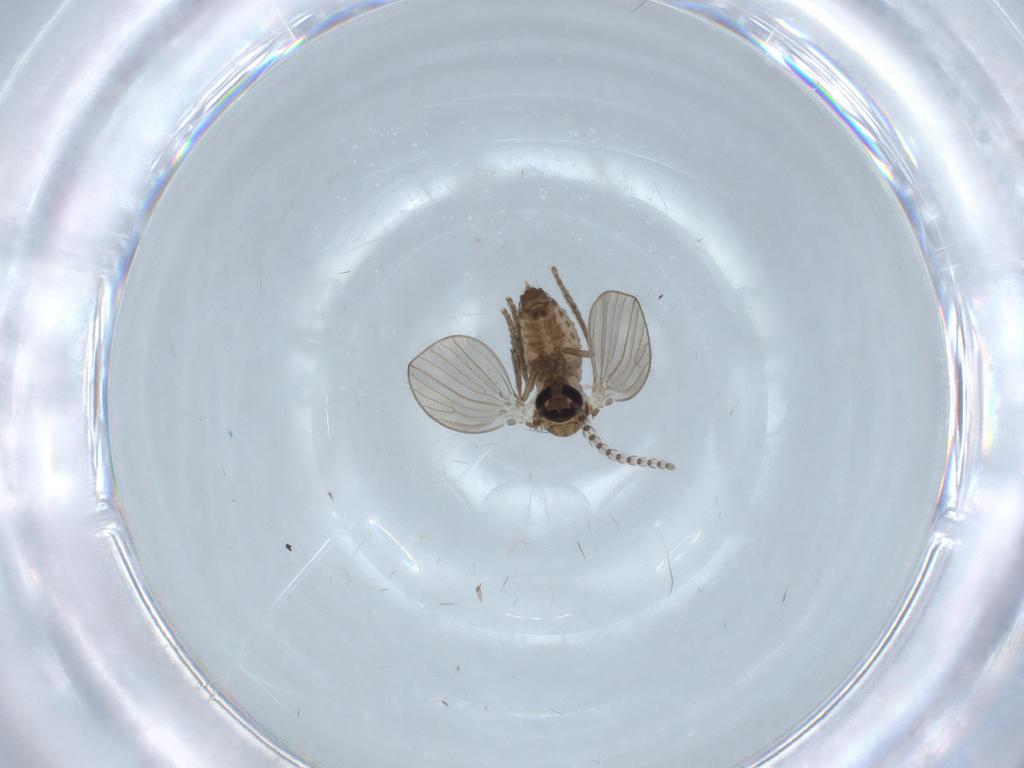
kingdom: Animalia
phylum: Arthropoda
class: Insecta
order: Diptera
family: Psychodidae
